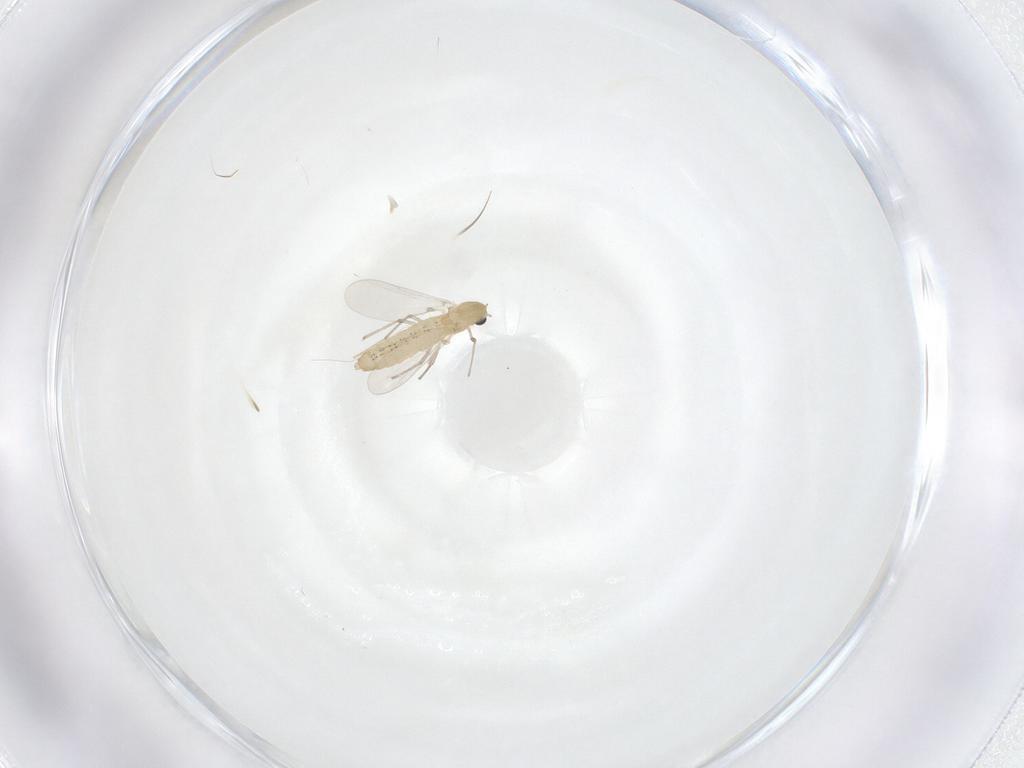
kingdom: Animalia
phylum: Arthropoda
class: Insecta
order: Diptera
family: Chironomidae
